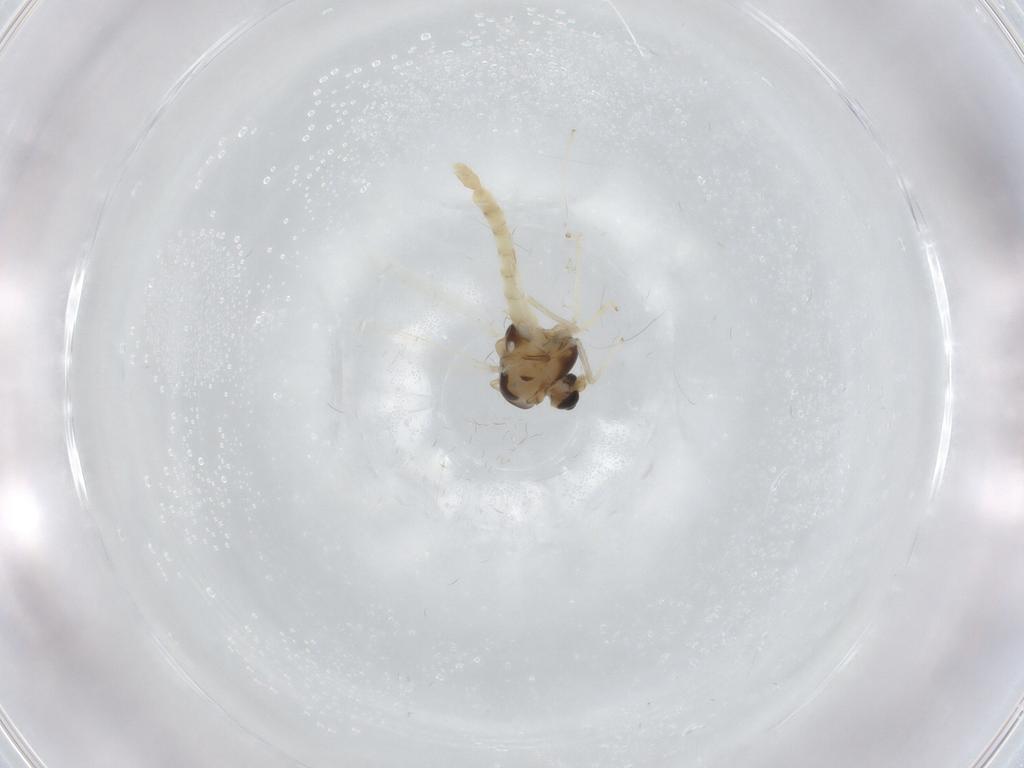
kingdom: Animalia
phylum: Arthropoda
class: Insecta
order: Diptera
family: Chironomidae
